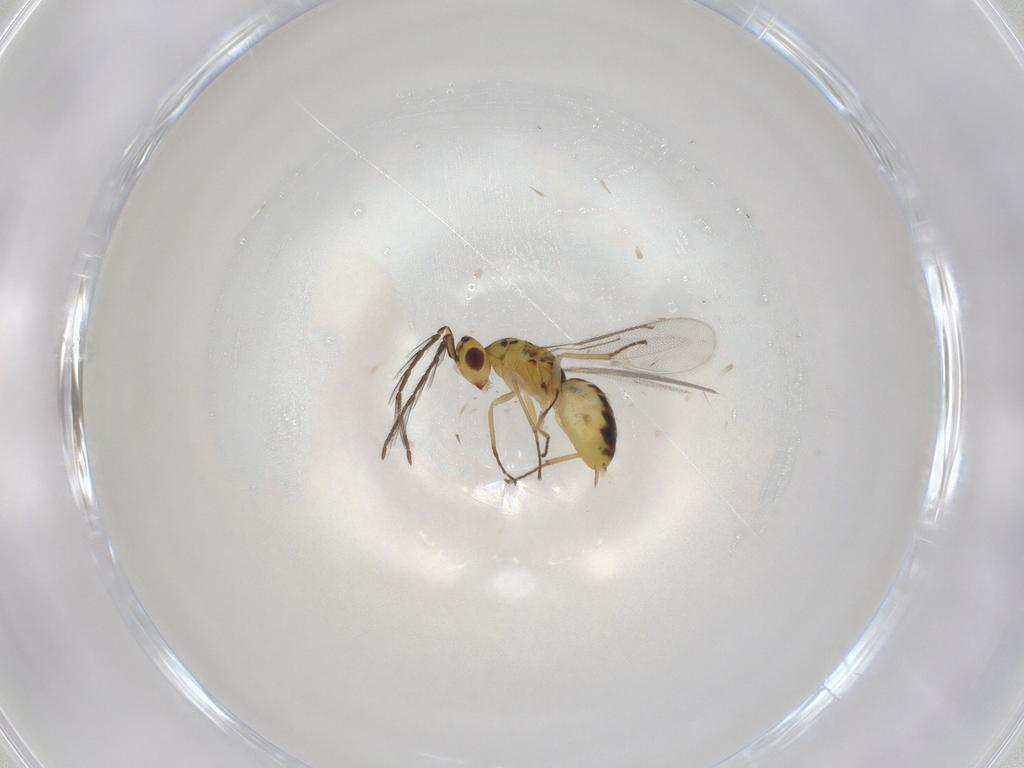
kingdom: Animalia
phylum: Arthropoda
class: Insecta
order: Hymenoptera
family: Eulophidae
